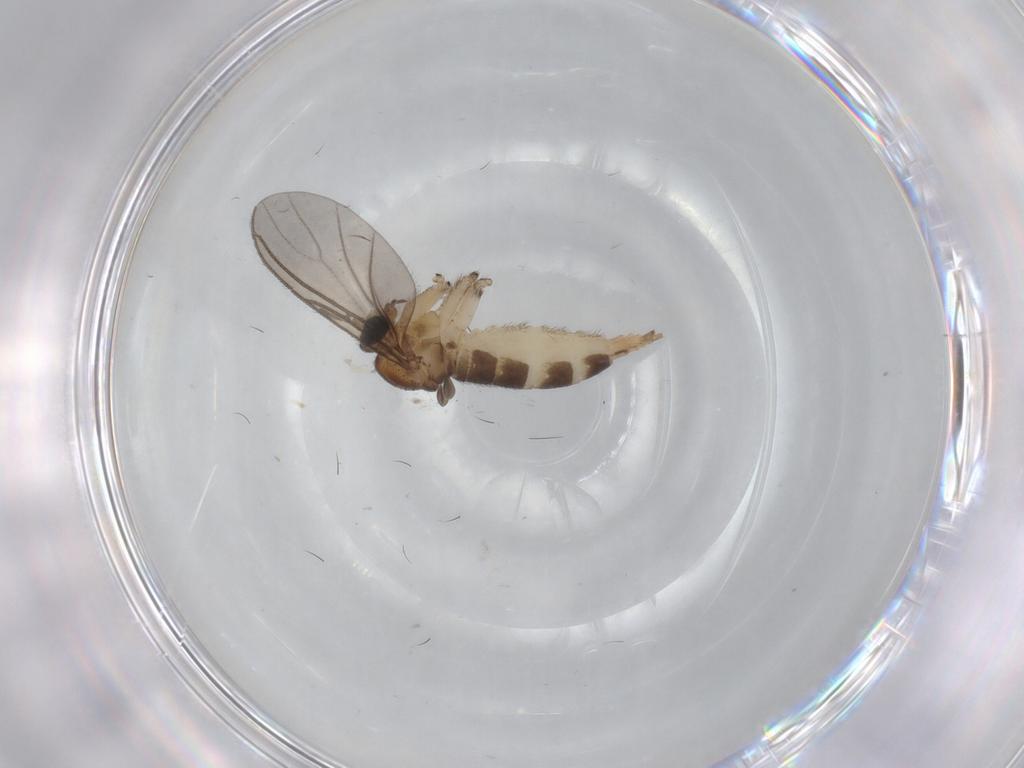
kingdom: Animalia
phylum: Arthropoda
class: Insecta
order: Diptera
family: Sciaridae
